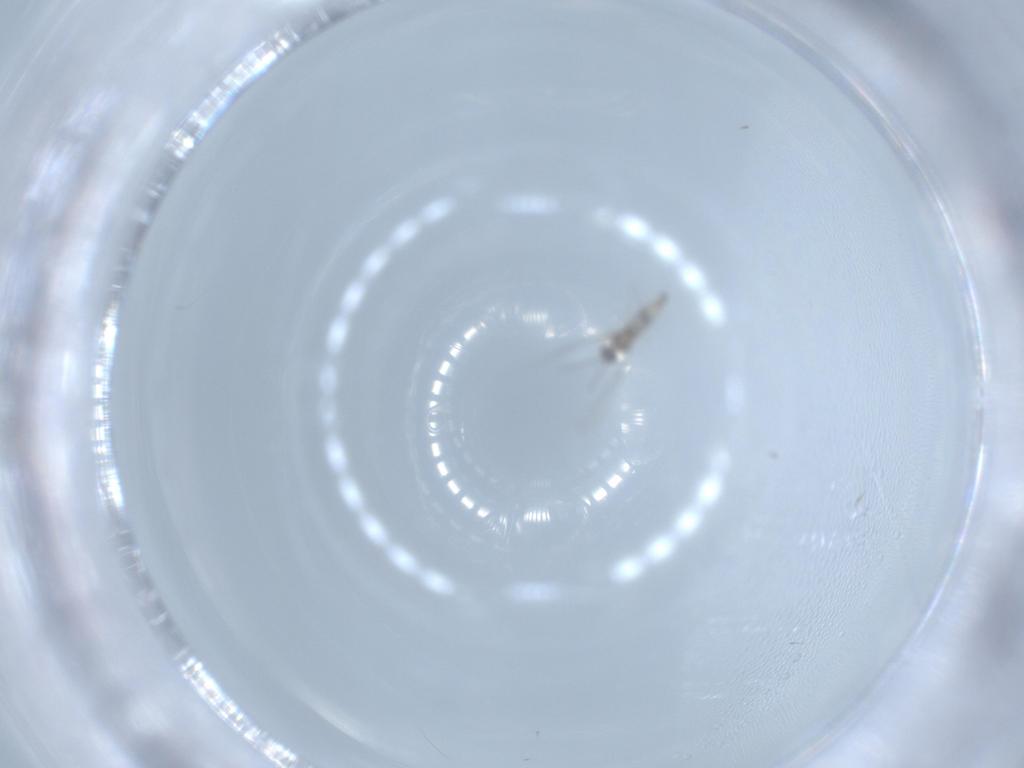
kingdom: Animalia
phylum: Arthropoda
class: Insecta
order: Diptera
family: Cecidomyiidae
